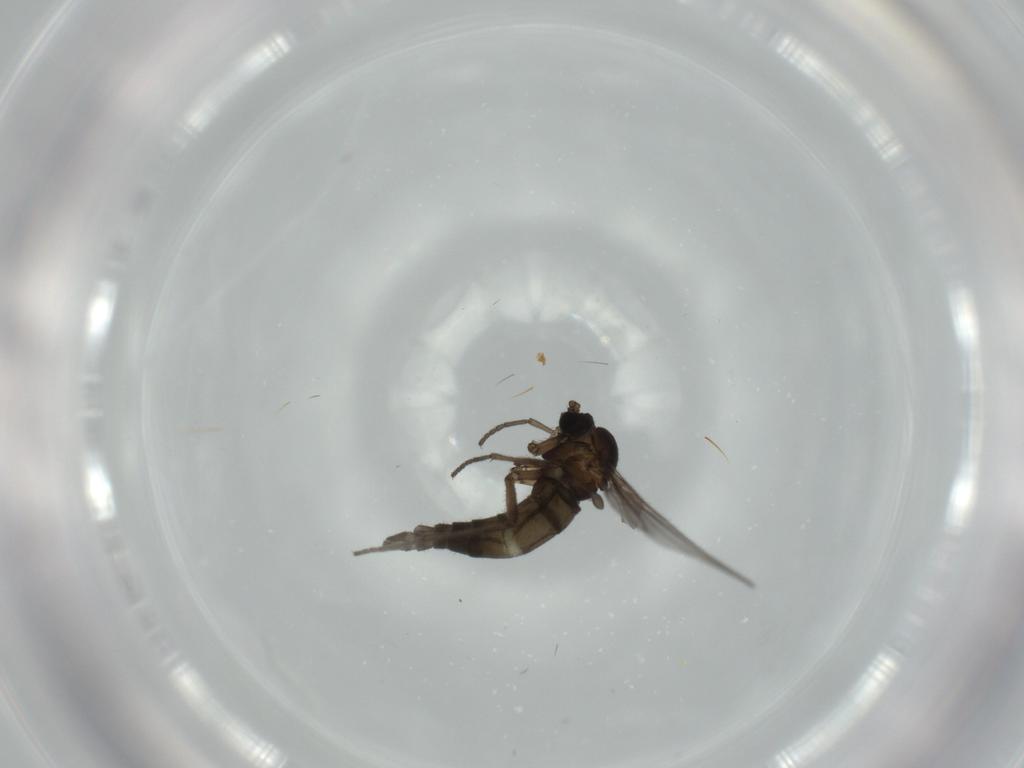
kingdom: Animalia
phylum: Arthropoda
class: Insecta
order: Diptera
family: Sciaridae
